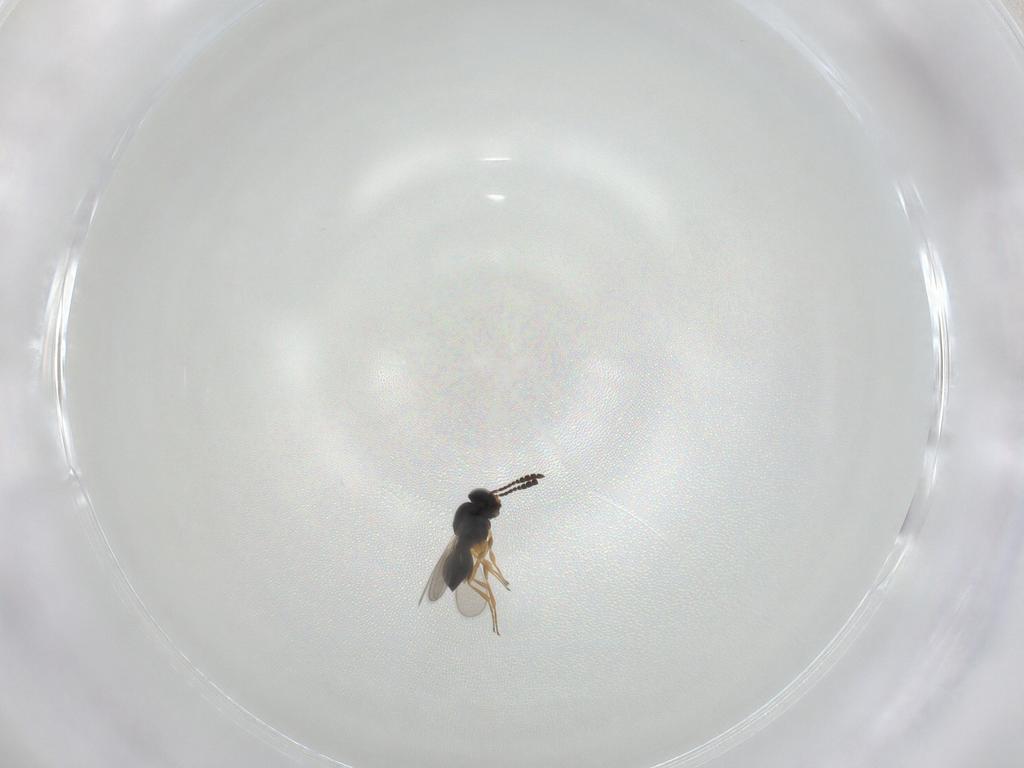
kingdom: Animalia
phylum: Arthropoda
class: Insecta
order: Hymenoptera
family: Scelionidae
